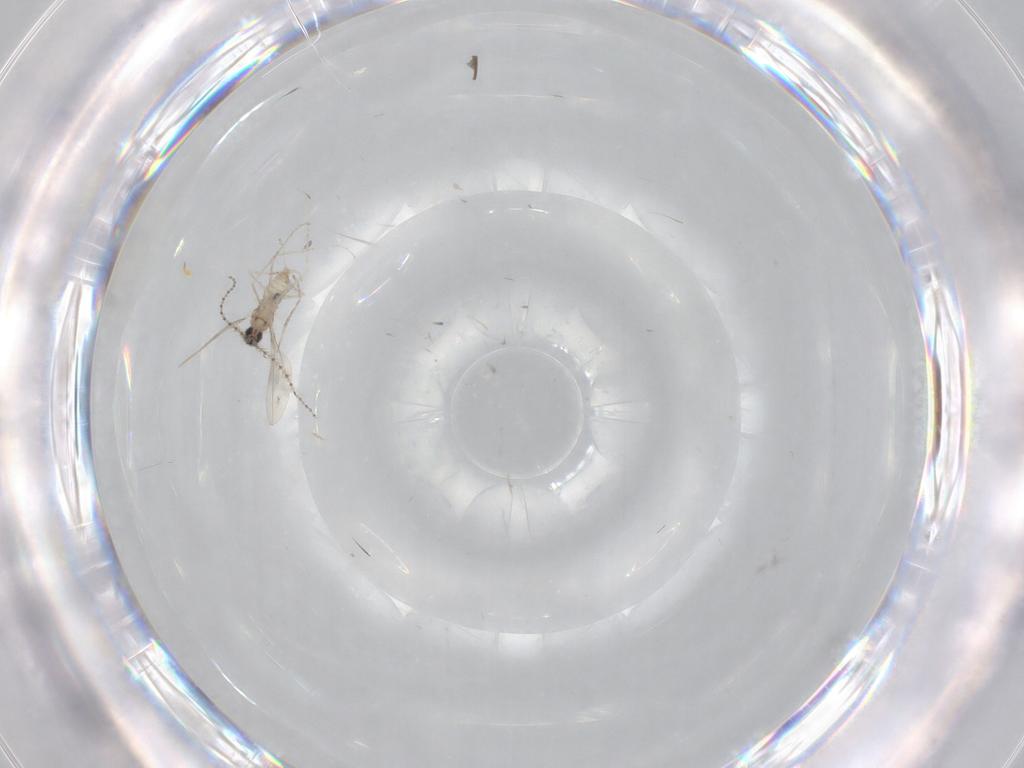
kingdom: Animalia
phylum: Arthropoda
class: Insecta
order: Diptera
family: Cecidomyiidae
